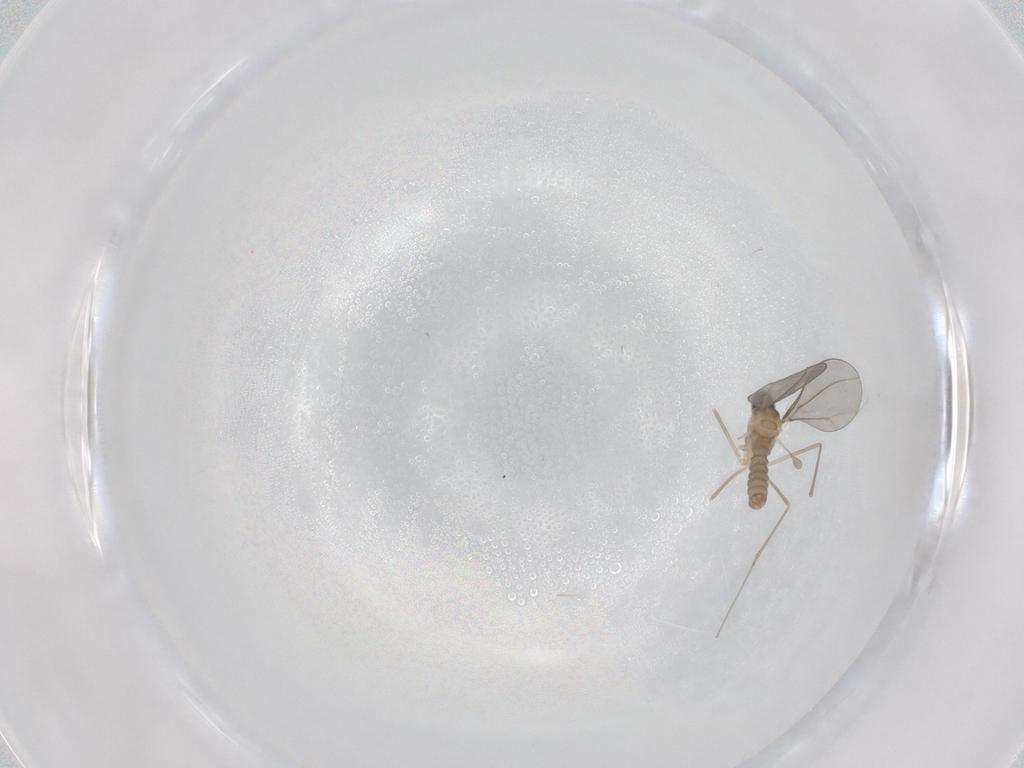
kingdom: Animalia
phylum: Arthropoda
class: Insecta
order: Diptera
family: Cecidomyiidae
